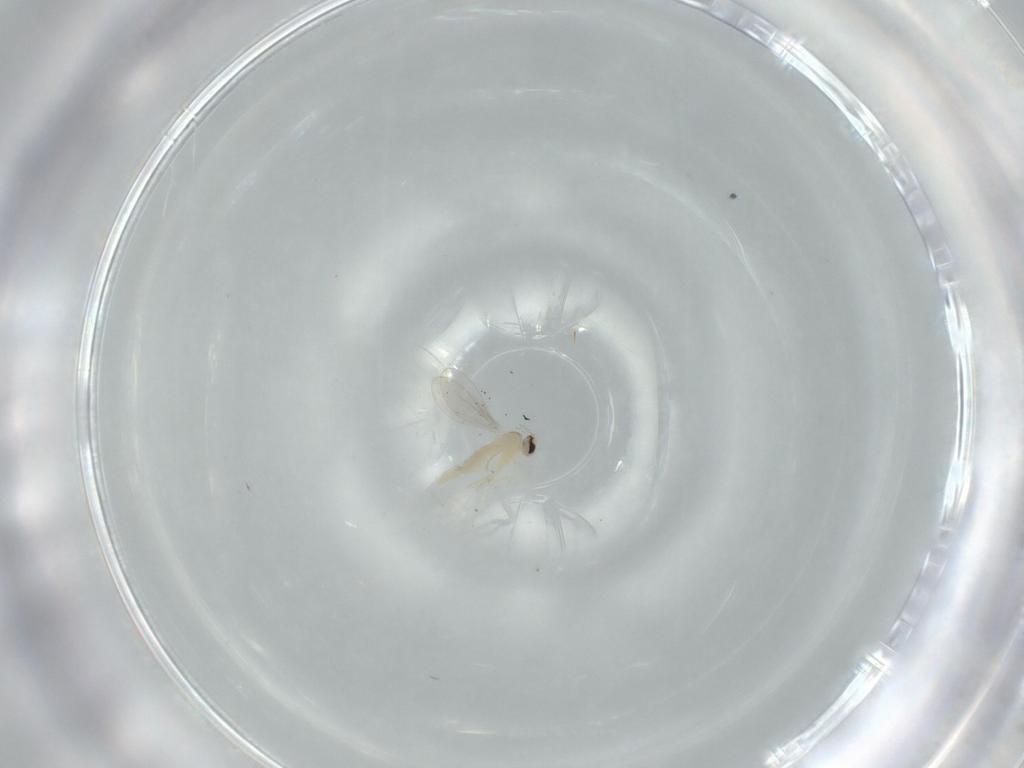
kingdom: Animalia
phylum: Arthropoda
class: Insecta
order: Diptera
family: Cecidomyiidae
